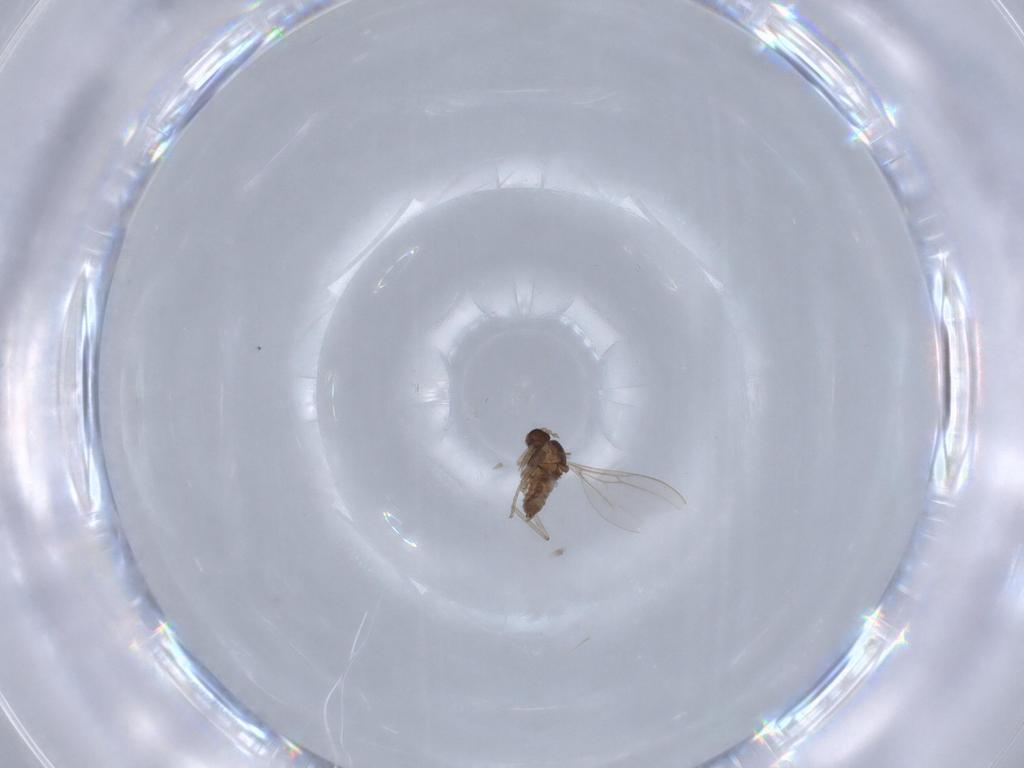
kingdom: Animalia
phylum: Arthropoda
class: Insecta
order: Diptera
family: Cecidomyiidae
